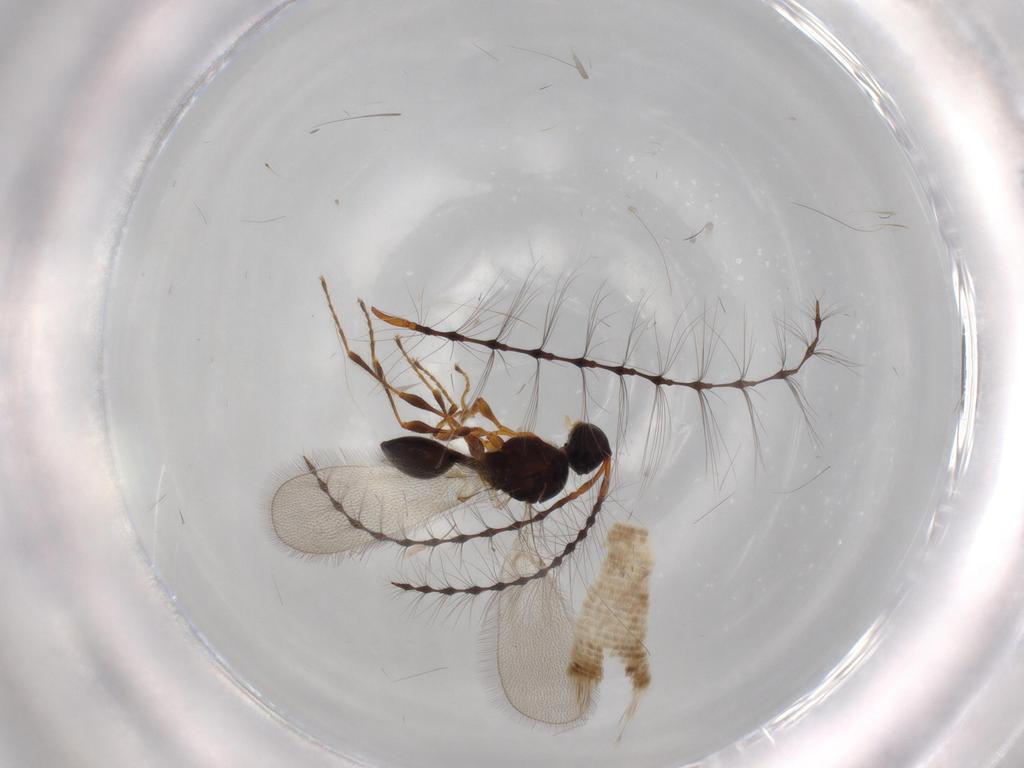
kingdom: Animalia
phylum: Arthropoda
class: Insecta
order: Hymenoptera
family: Diapriidae
